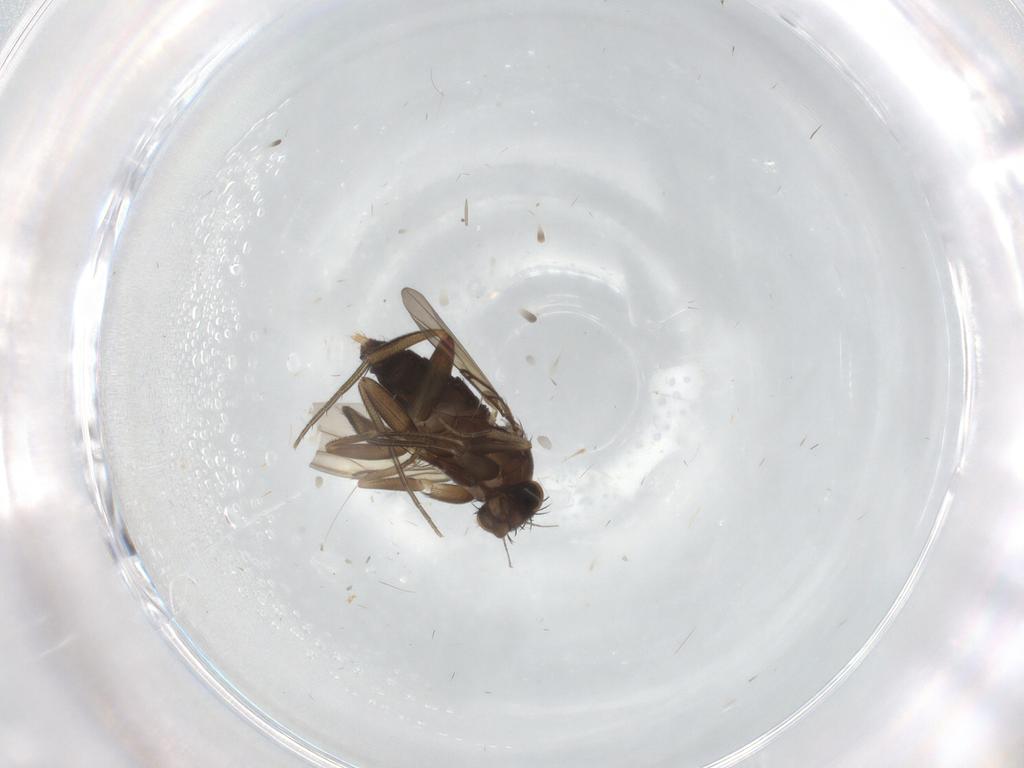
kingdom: Animalia
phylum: Arthropoda
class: Insecta
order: Diptera
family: Phoridae
